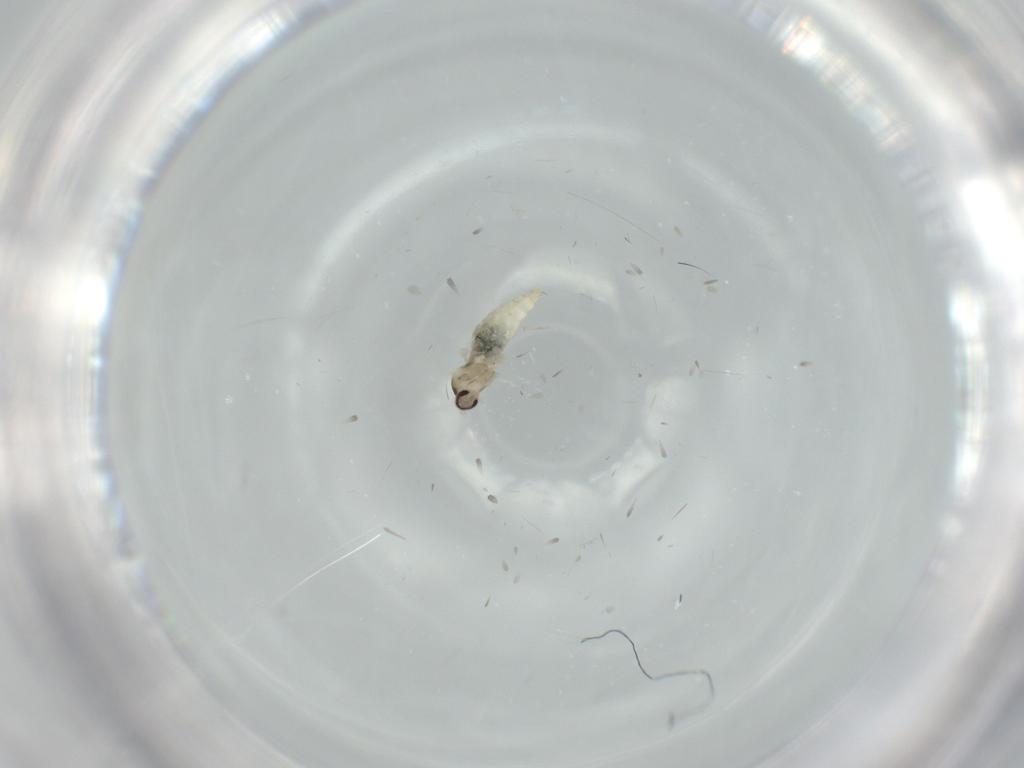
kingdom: Animalia
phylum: Arthropoda
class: Insecta
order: Diptera
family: Cecidomyiidae
